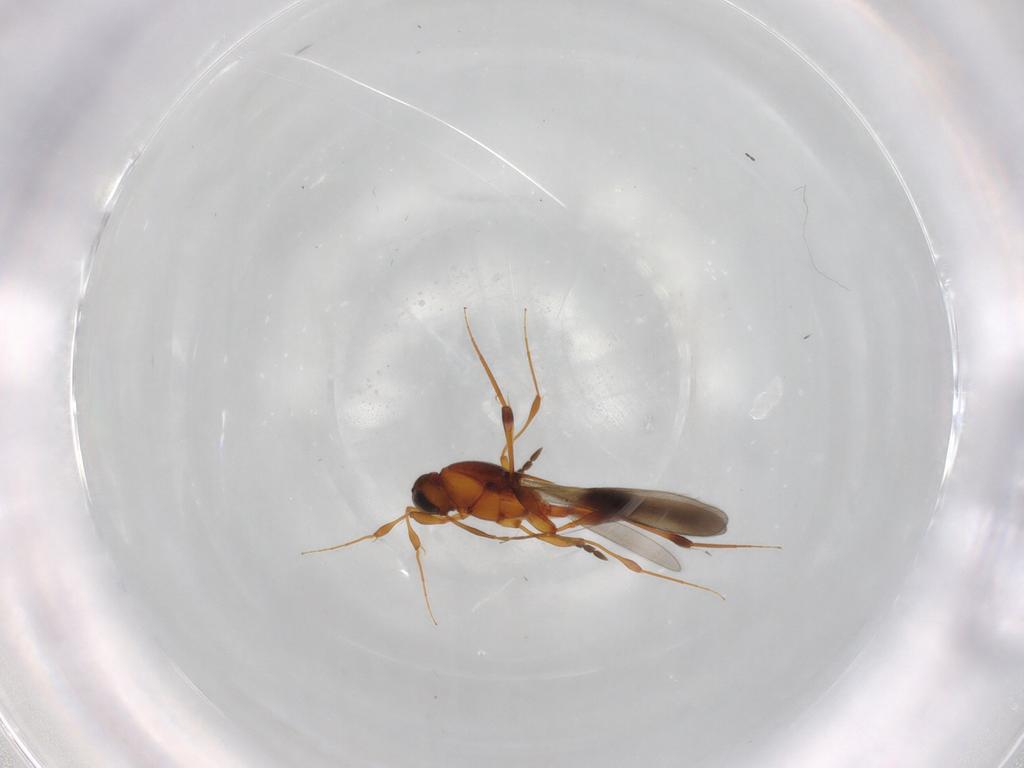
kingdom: Animalia
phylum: Arthropoda
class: Insecta
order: Hymenoptera
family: Platygastridae
